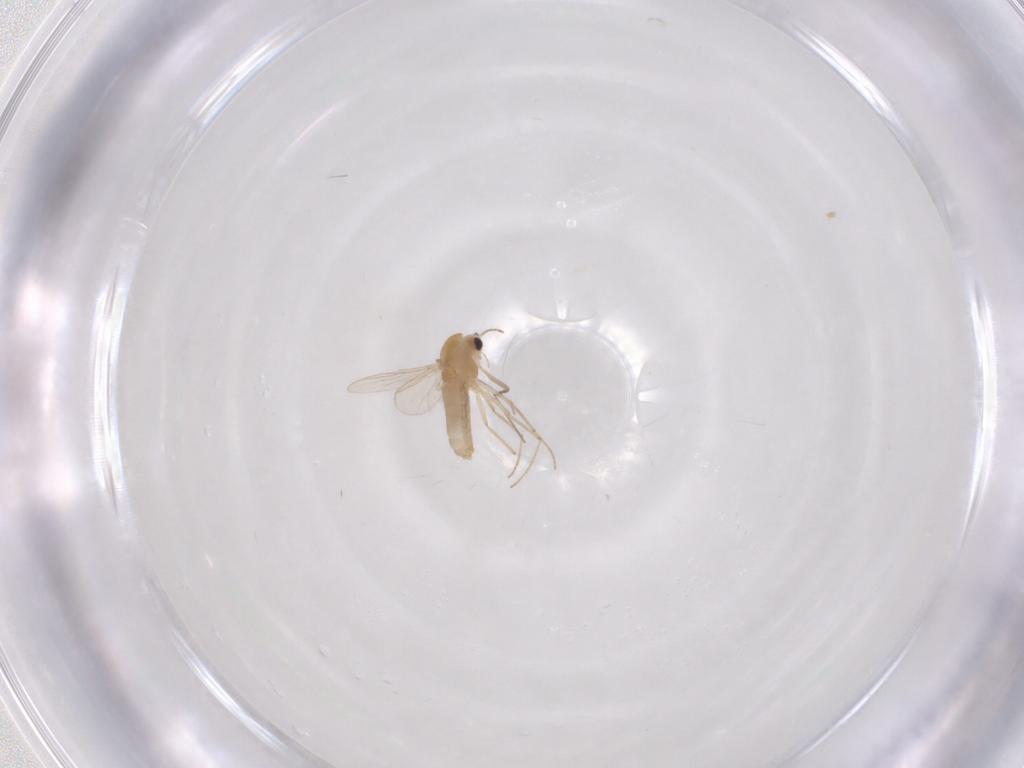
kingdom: Animalia
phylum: Arthropoda
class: Insecta
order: Diptera
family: Chironomidae
